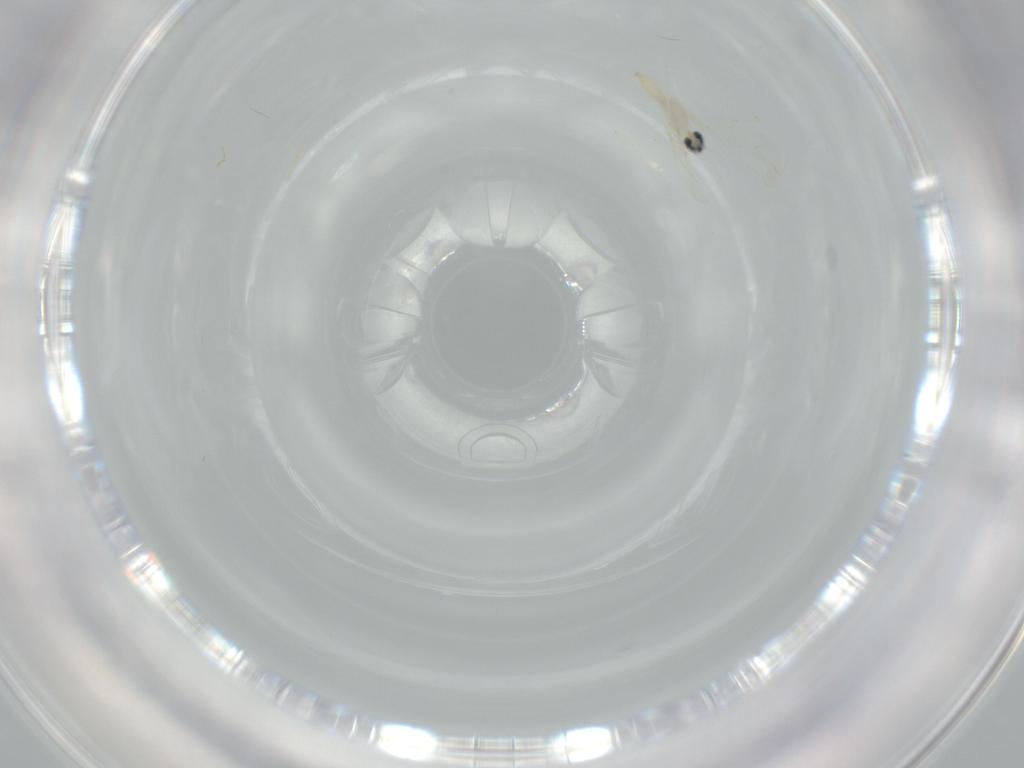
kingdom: Animalia
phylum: Arthropoda
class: Insecta
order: Diptera
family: Cecidomyiidae
